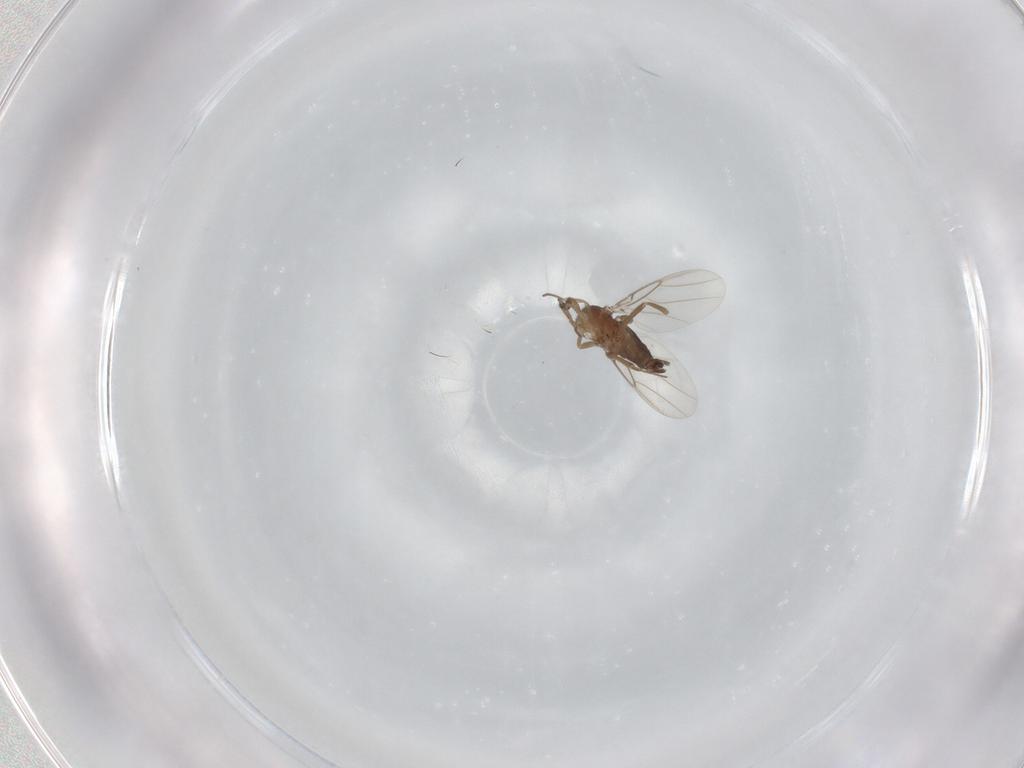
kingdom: Animalia
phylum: Arthropoda
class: Insecta
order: Diptera
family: Phoridae
